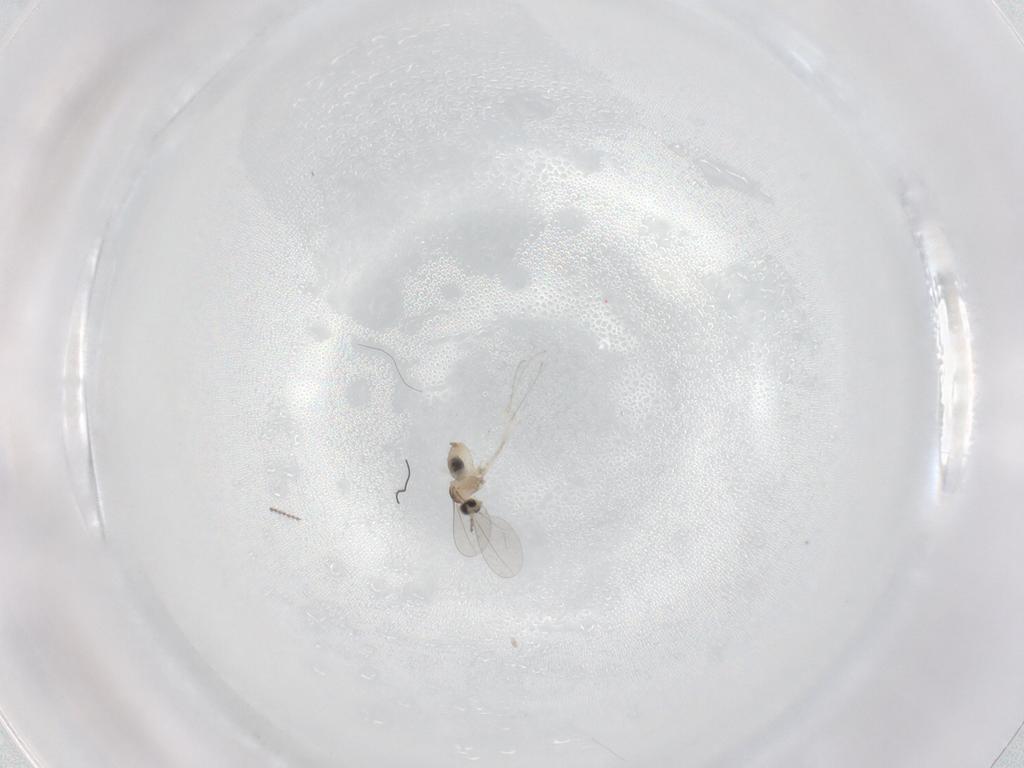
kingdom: Animalia
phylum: Arthropoda
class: Insecta
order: Diptera
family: Cecidomyiidae
